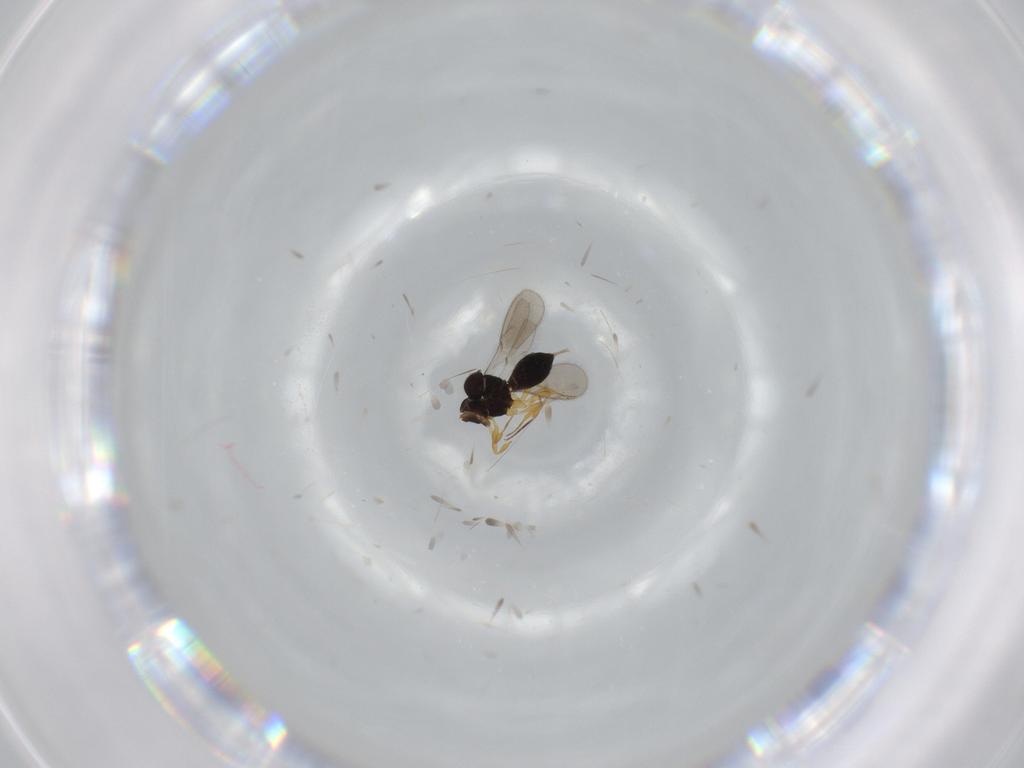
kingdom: Animalia
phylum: Arthropoda
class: Insecta
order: Hymenoptera
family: Scelionidae
